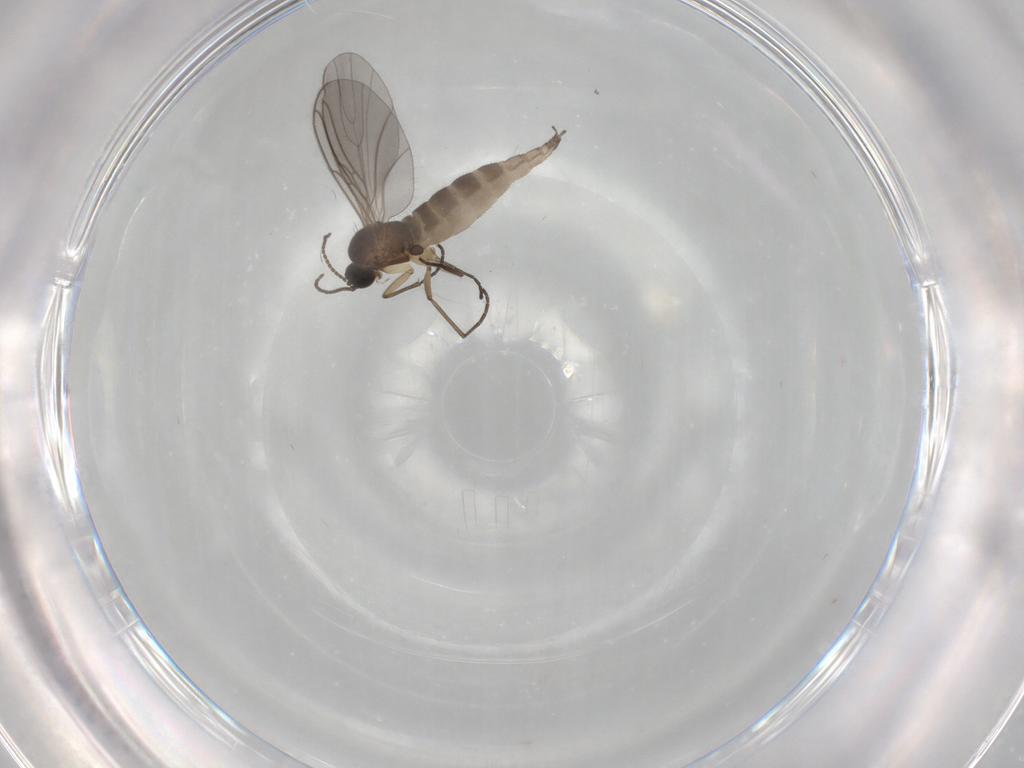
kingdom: Animalia
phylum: Arthropoda
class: Insecta
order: Diptera
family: Sciaridae
